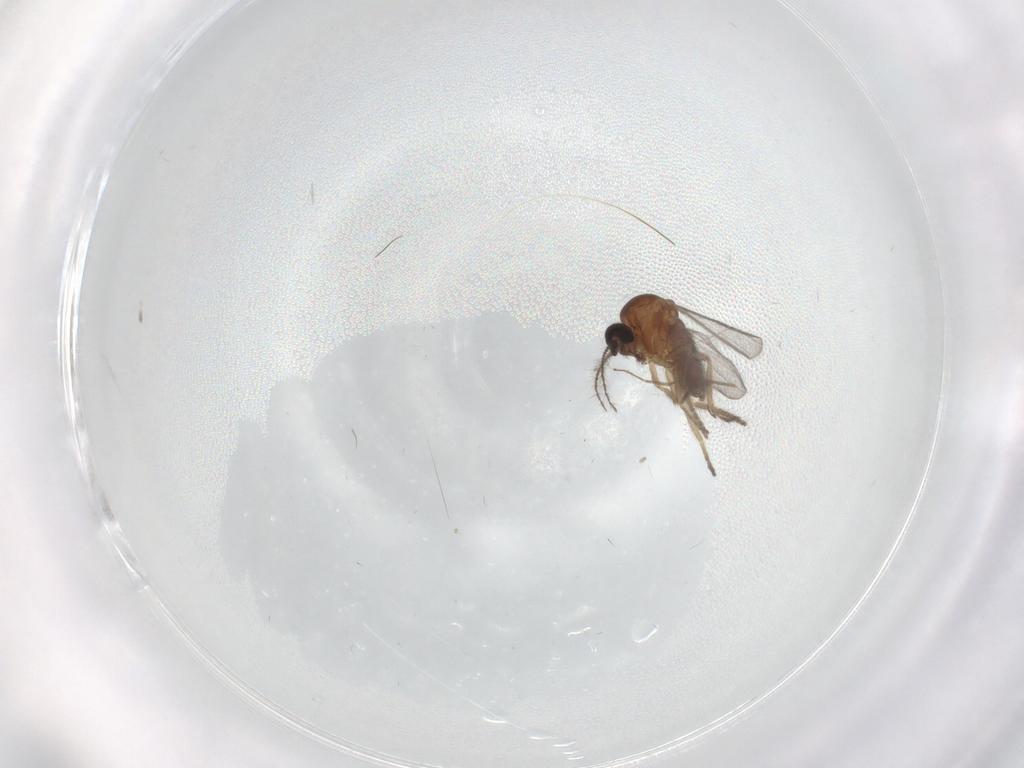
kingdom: Animalia
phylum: Arthropoda
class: Insecta
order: Diptera
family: Ceratopogonidae
